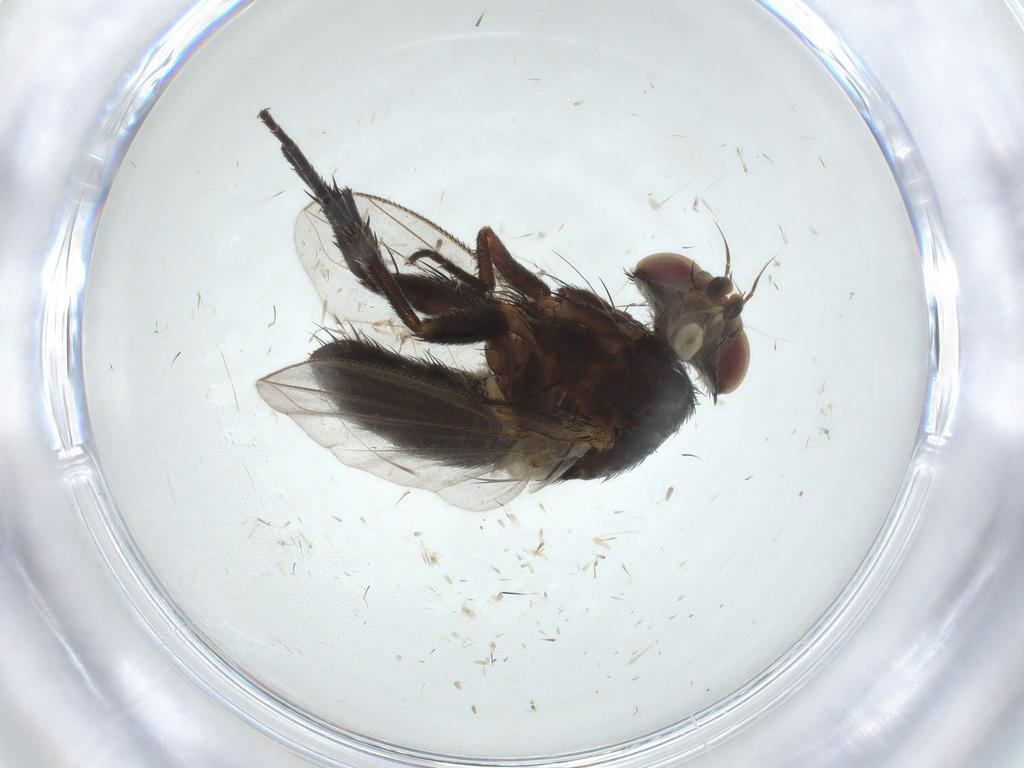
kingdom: Animalia
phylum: Arthropoda
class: Insecta
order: Diptera
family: Tachinidae
